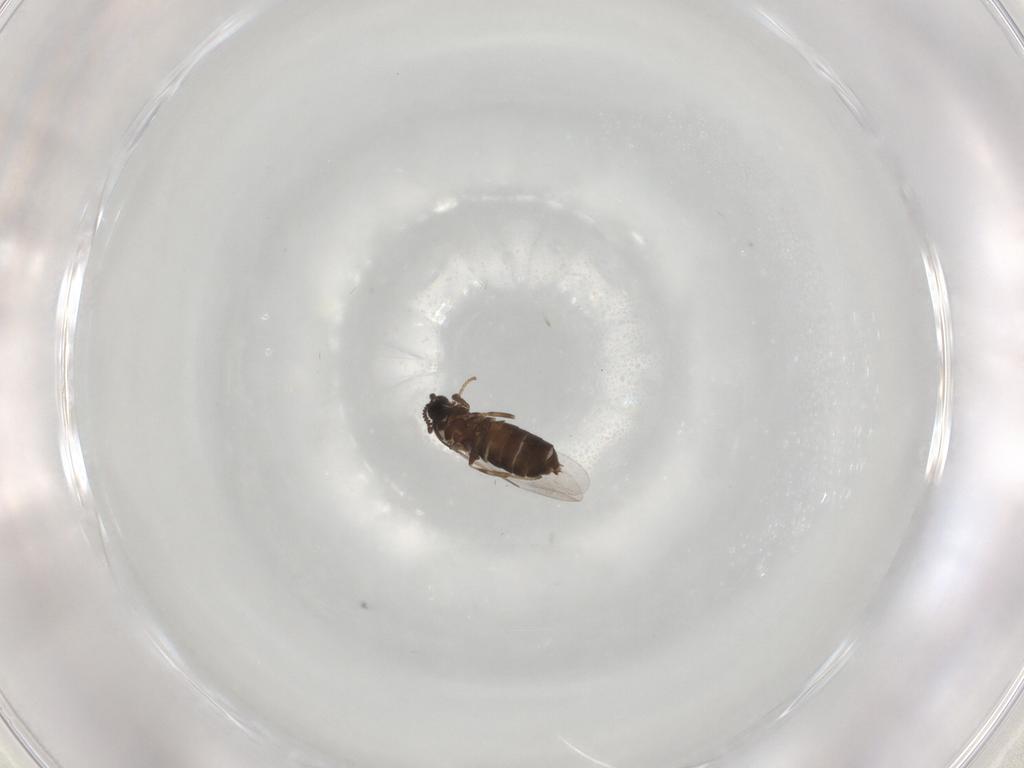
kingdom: Animalia
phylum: Arthropoda
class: Insecta
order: Diptera
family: Scatopsidae
